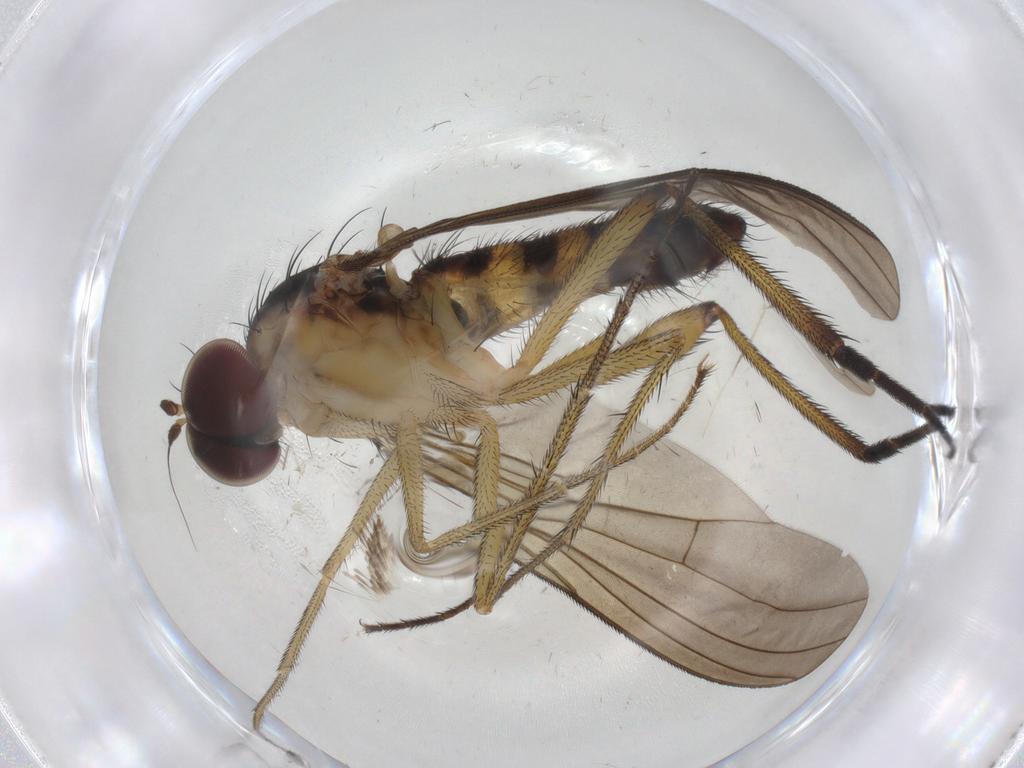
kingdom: Animalia
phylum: Arthropoda
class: Insecta
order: Diptera
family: Dolichopodidae
